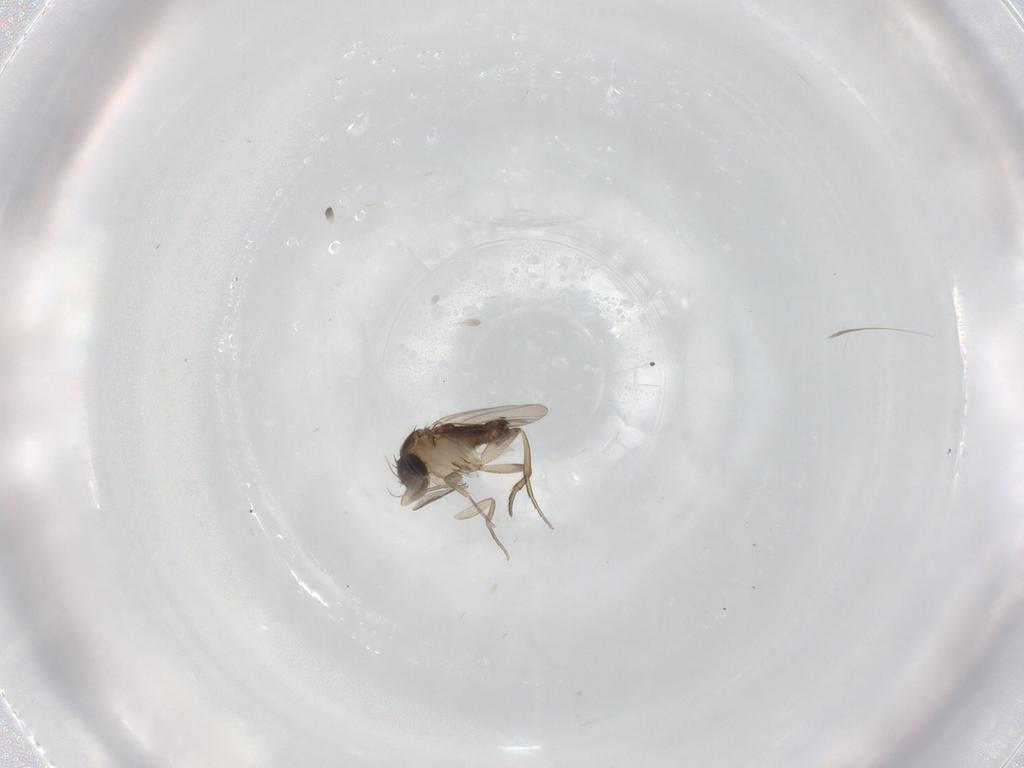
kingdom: Animalia
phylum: Arthropoda
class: Insecta
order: Diptera
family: Phoridae
